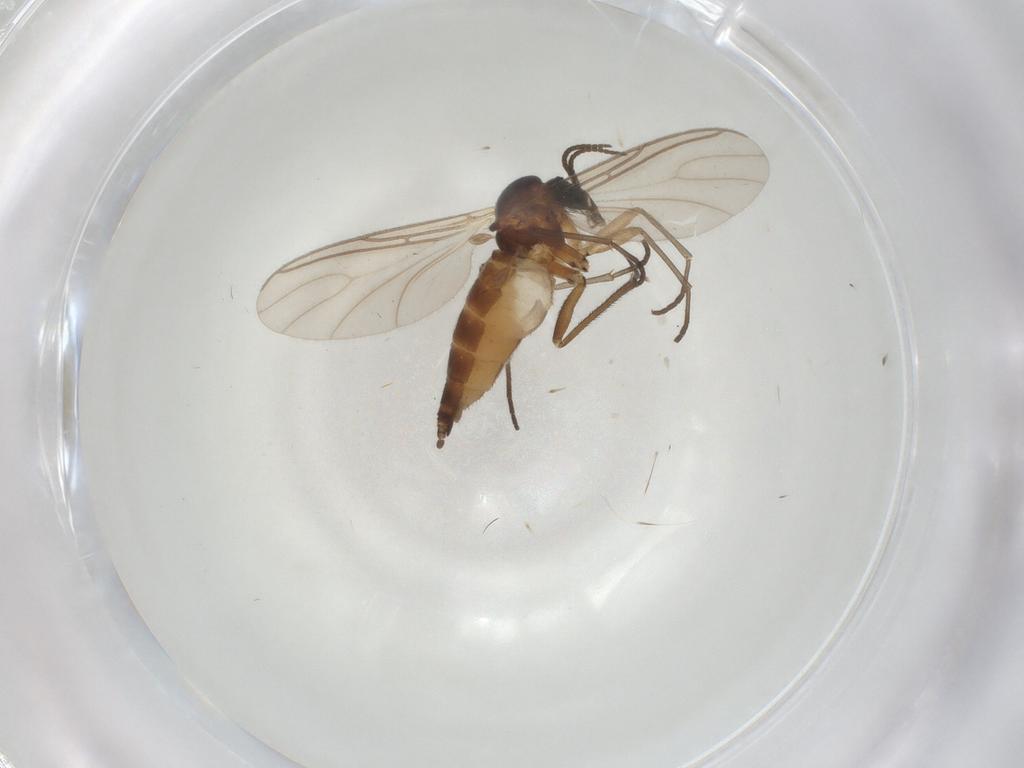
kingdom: Animalia
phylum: Arthropoda
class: Insecta
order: Diptera
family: Sciaridae
